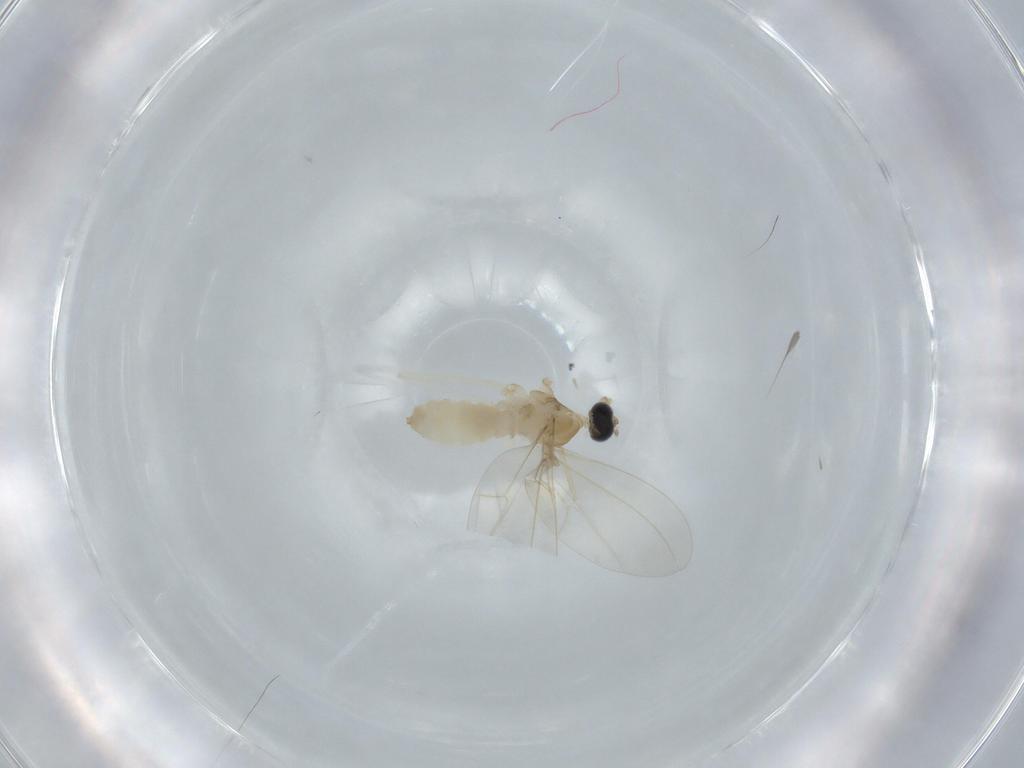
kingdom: Animalia
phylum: Arthropoda
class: Insecta
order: Diptera
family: Cecidomyiidae
